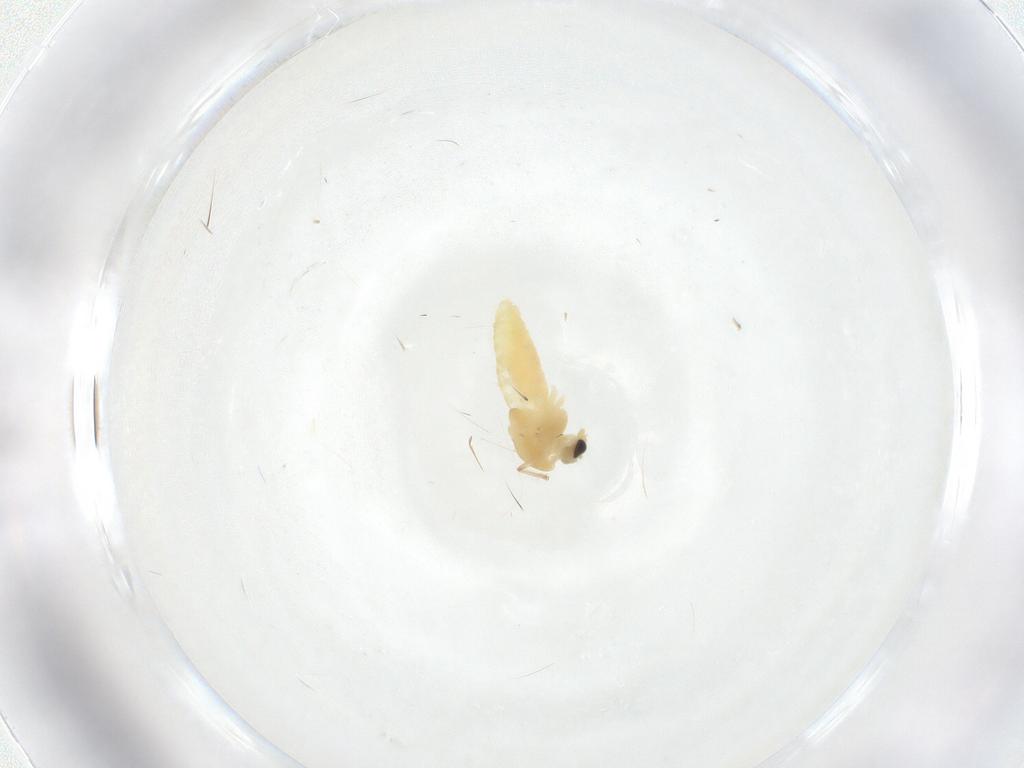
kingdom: Animalia
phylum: Arthropoda
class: Insecta
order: Diptera
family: Chironomidae
